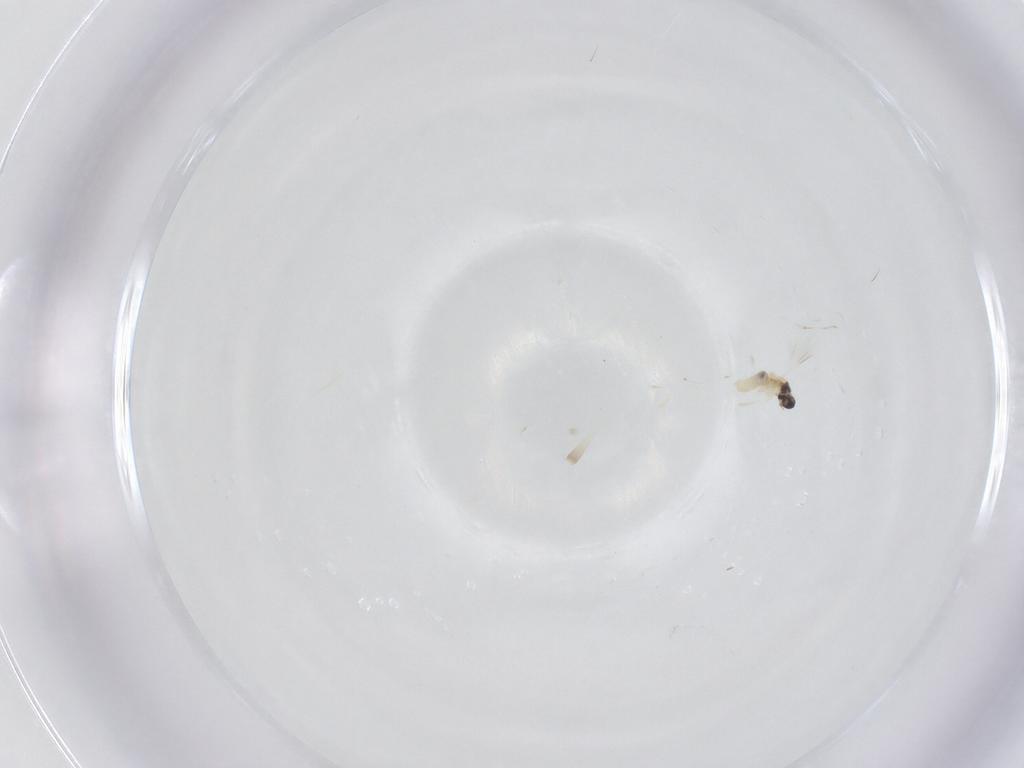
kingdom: Animalia
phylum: Arthropoda
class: Insecta
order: Diptera
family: Cecidomyiidae
